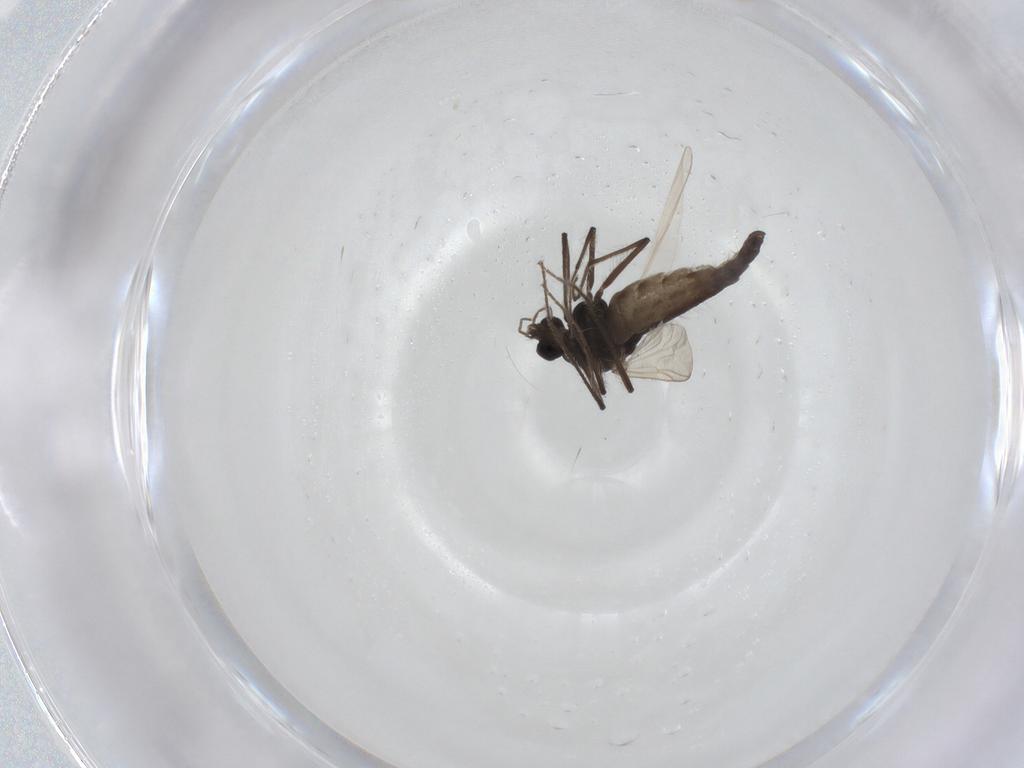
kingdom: Animalia
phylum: Arthropoda
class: Insecta
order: Diptera
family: Chironomidae
